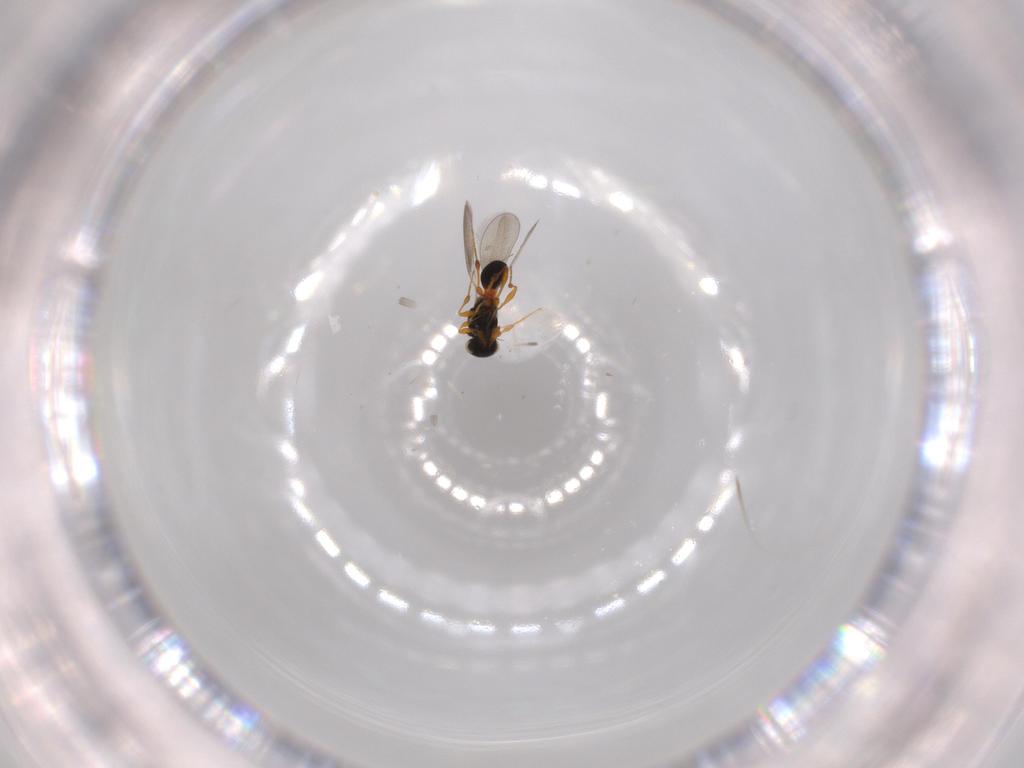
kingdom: Animalia
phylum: Arthropoda
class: Insecta
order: Hymenoptera
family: Platygastridae
